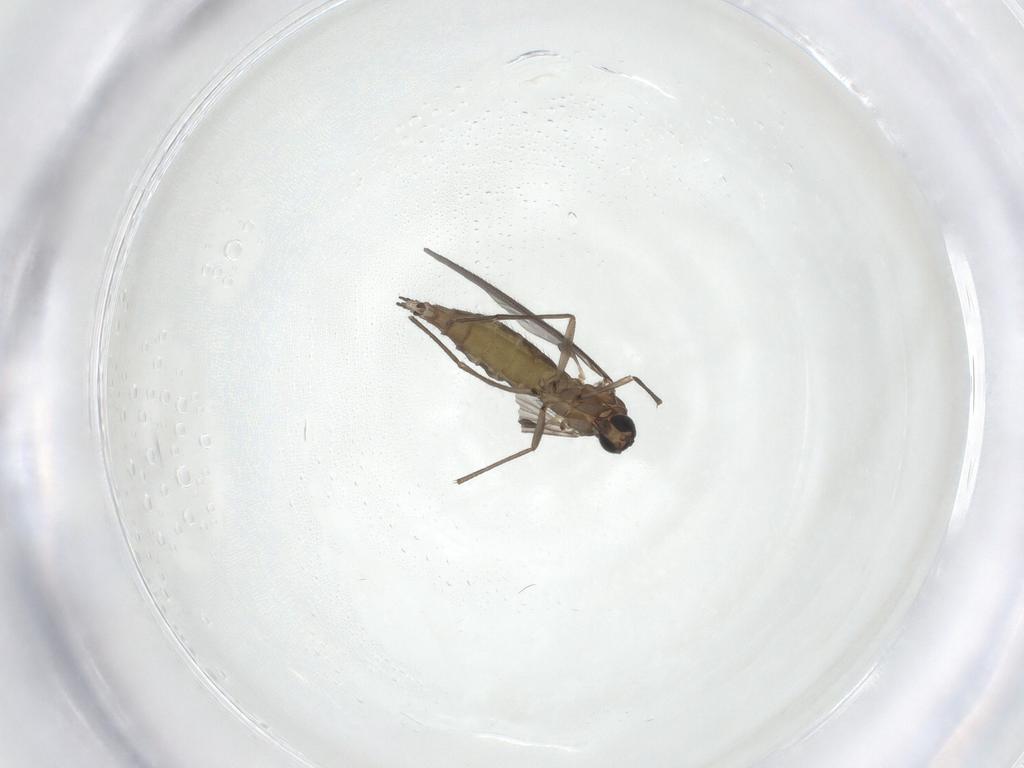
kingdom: Animalia
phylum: Arthropoda
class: Insecta
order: Diptera
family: Sciaridae
